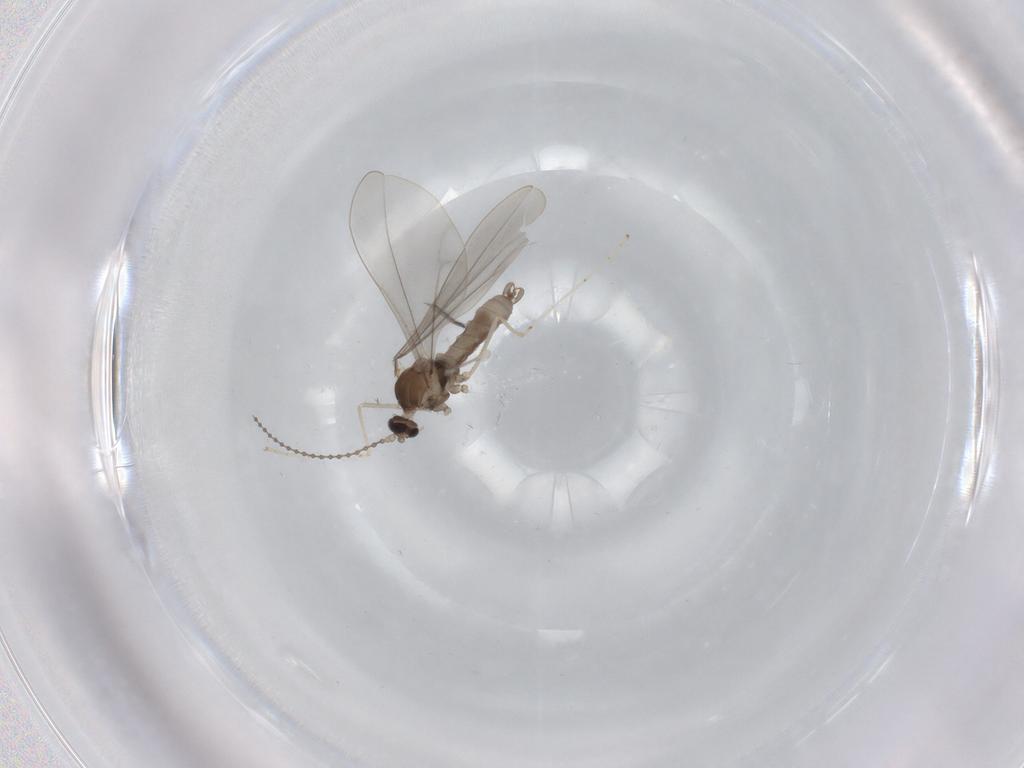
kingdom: Animalia
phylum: Arthropoda
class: Insecta
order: Diptera
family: Cecidomyiidae
